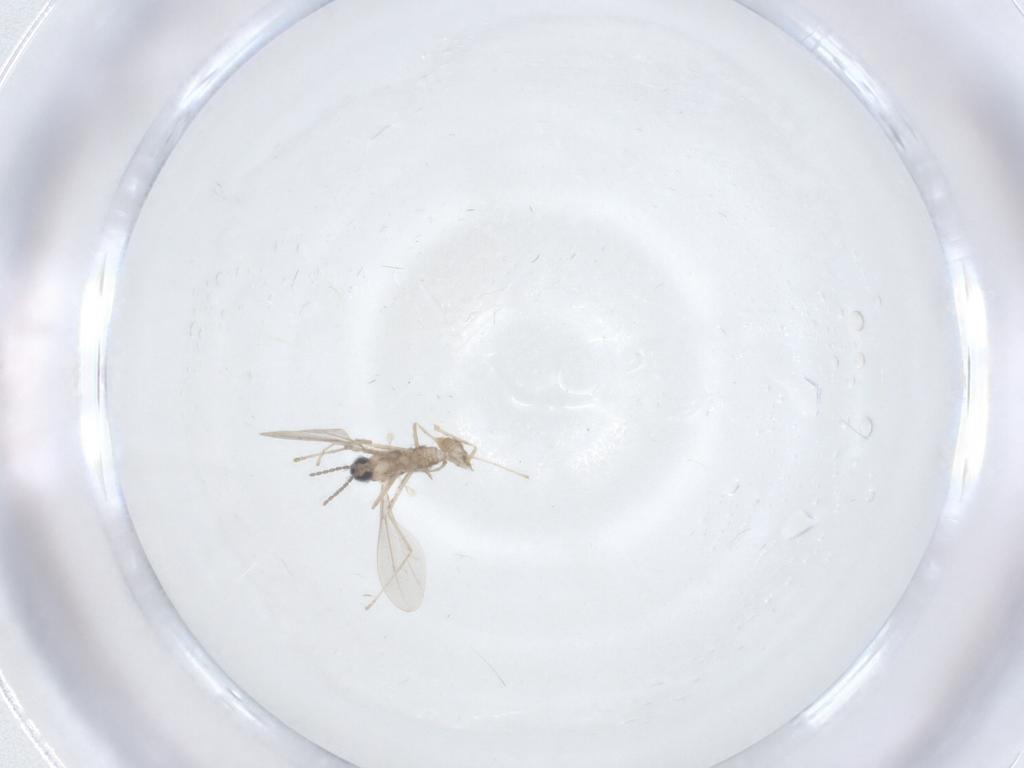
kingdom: Animalia
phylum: Arthropoda
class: Insecta
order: Diptera
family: Cecidomyiidae
